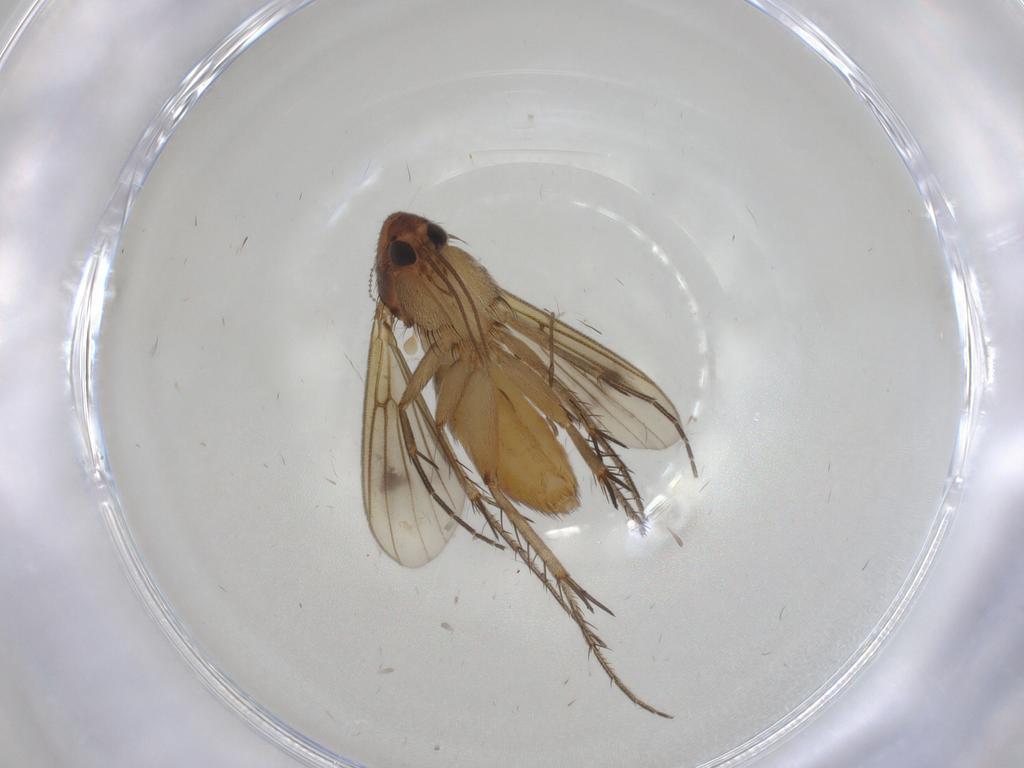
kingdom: Animalia
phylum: Arthropoda
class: Insecta
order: Diptera
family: Mycetophilidae
